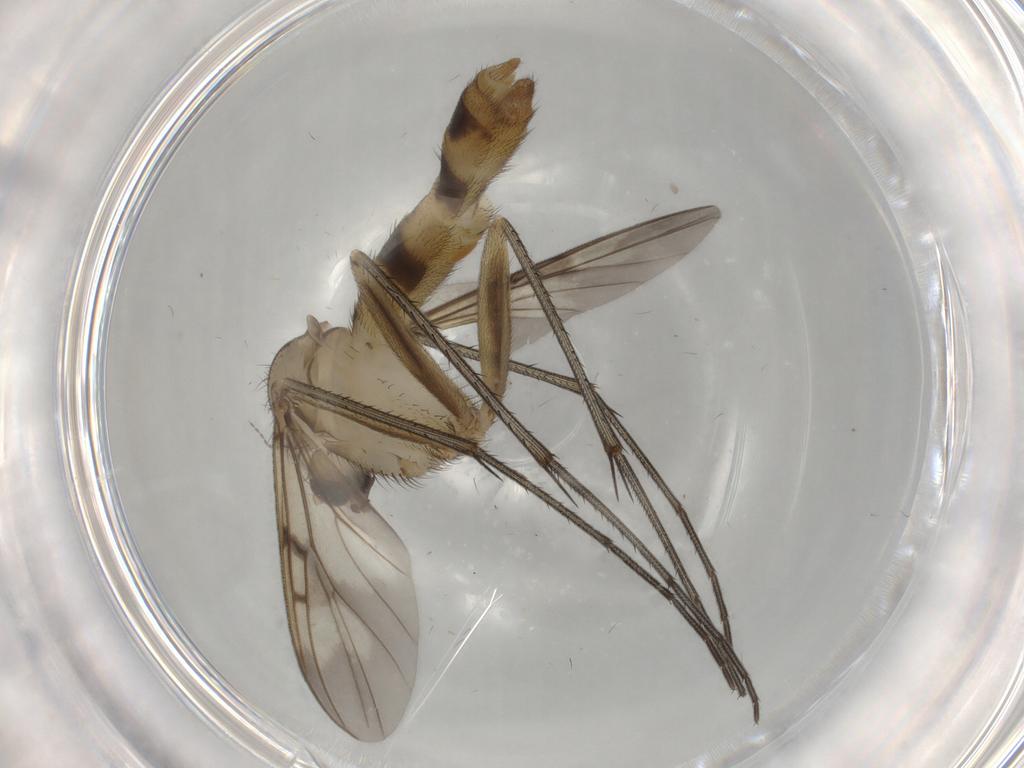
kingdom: Animalia
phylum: Arthropoda
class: Insecta
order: Diptera
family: Mycetophilidae
